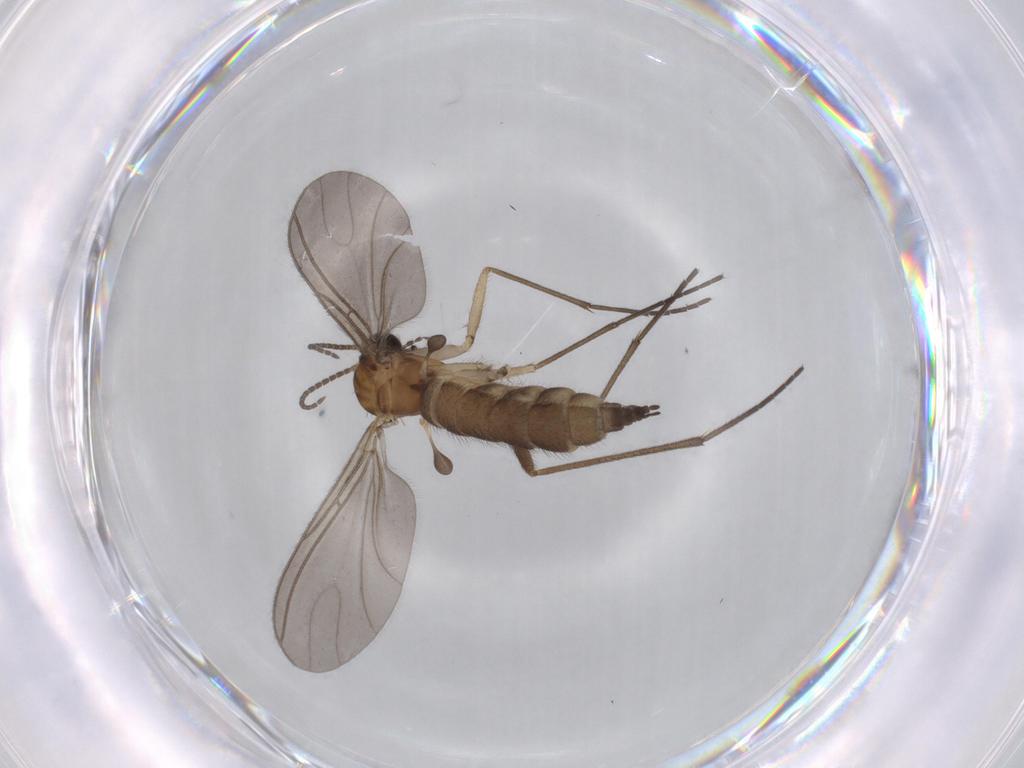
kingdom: Animalia
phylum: Arthropoda
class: Insecta
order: Diptera
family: Sciaridae
